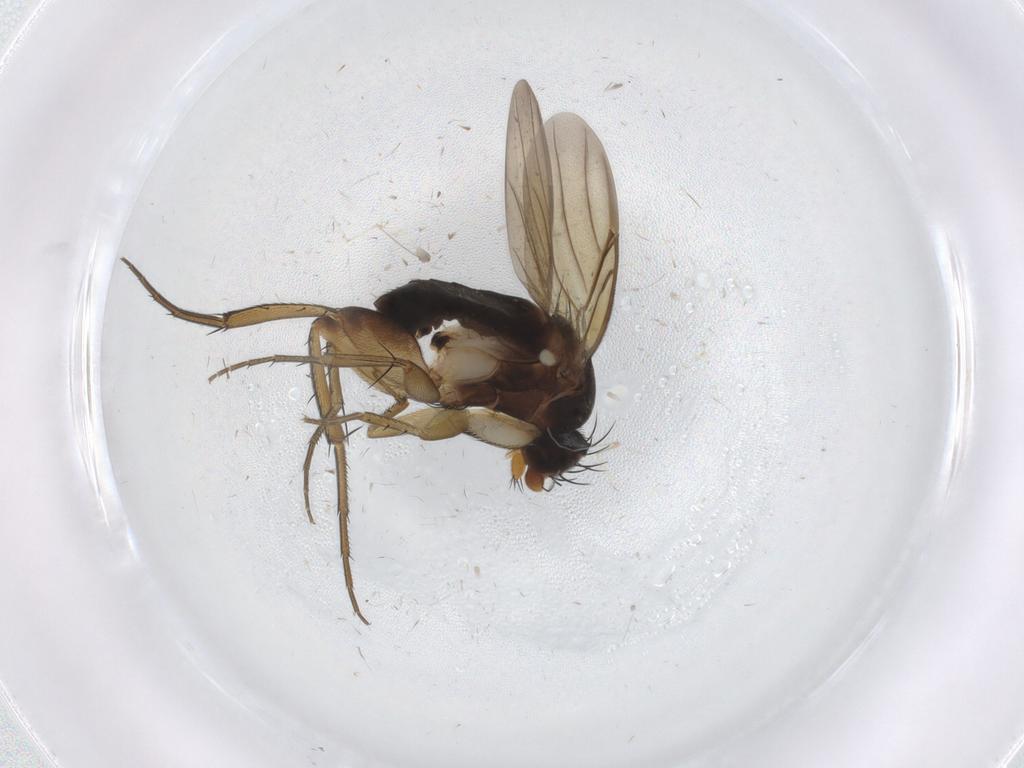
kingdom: Animalia
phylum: Arthropoda
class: Insecta
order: Diptera
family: Phoridae
